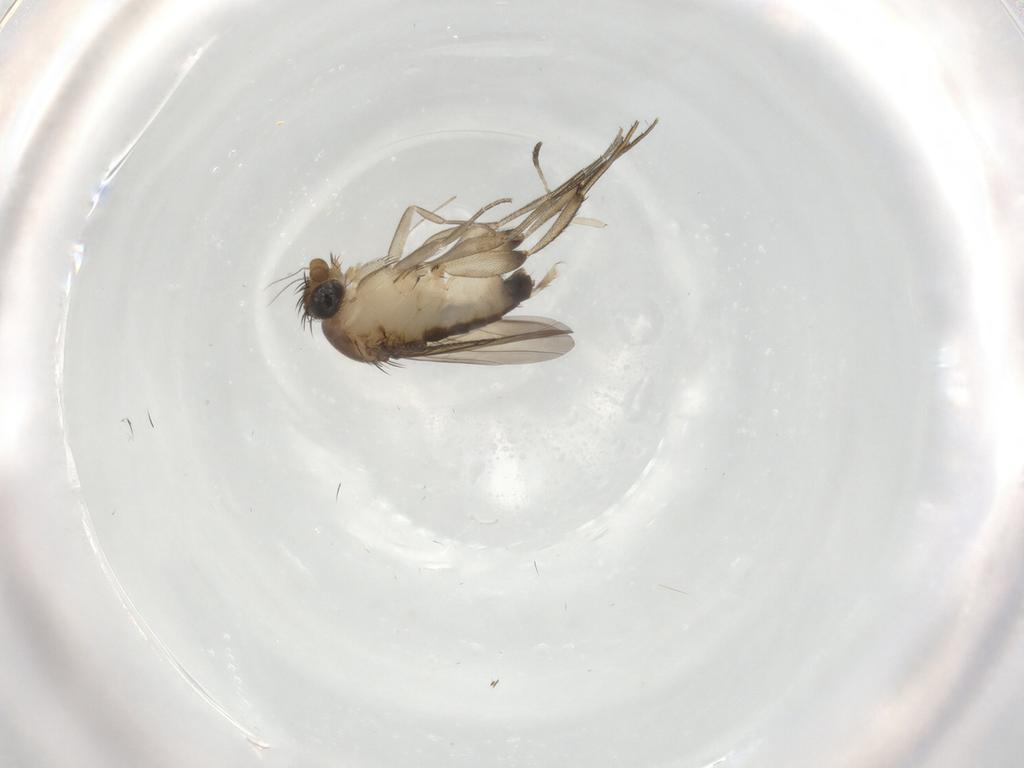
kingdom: Animalia
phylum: Arthropoda
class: Insecta
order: Diptera
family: Phoridae
